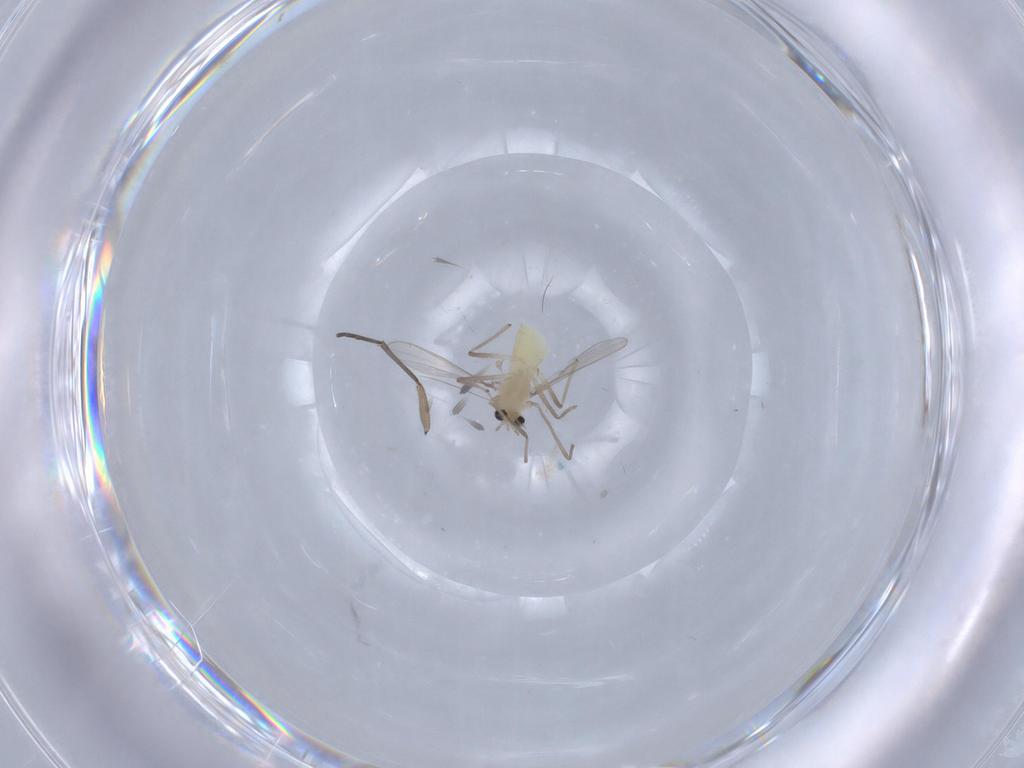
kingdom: Animalia
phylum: Arthropoda
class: Insecta
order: Diptera
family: Chironomidae
